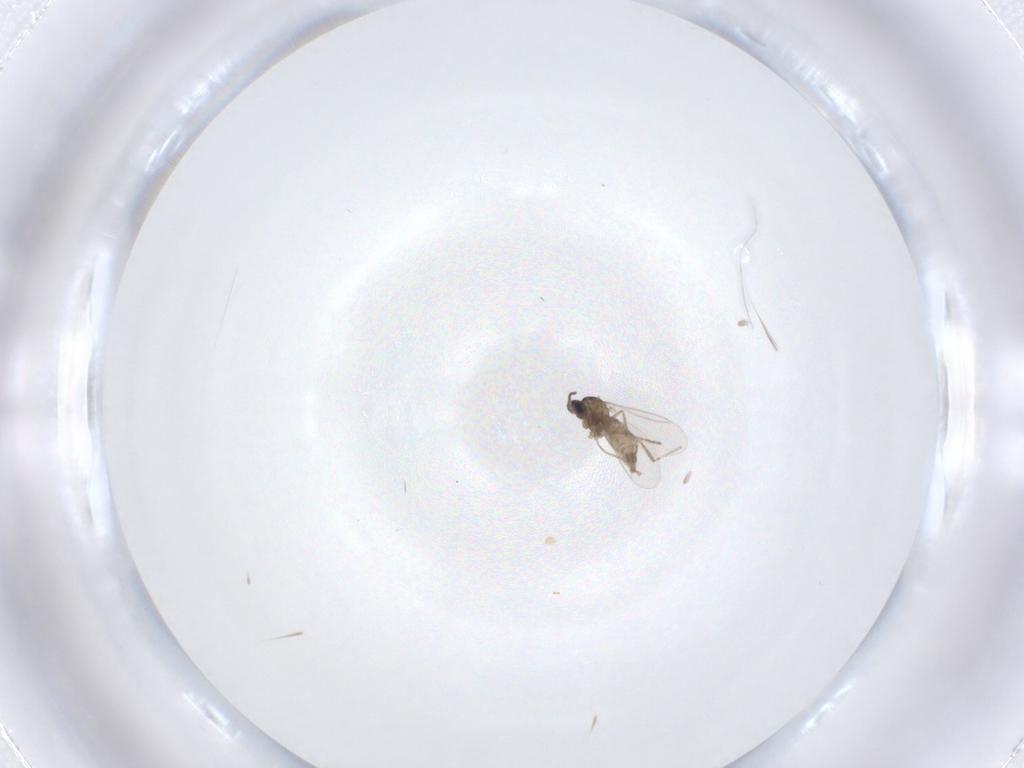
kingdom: Animalia
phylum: Arthropoda
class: Insecta
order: Diptera
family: Cecidomyiidae
